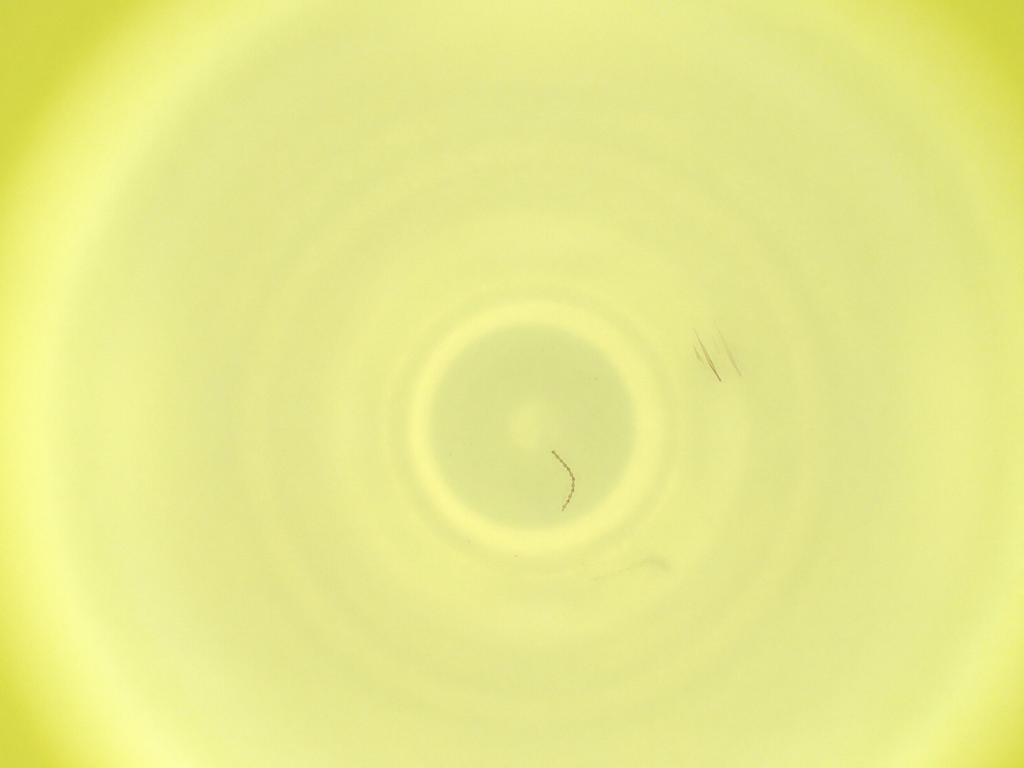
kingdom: Animalia
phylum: Arthropoda
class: Insecta
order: Diptera
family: Cecidomyiidae
